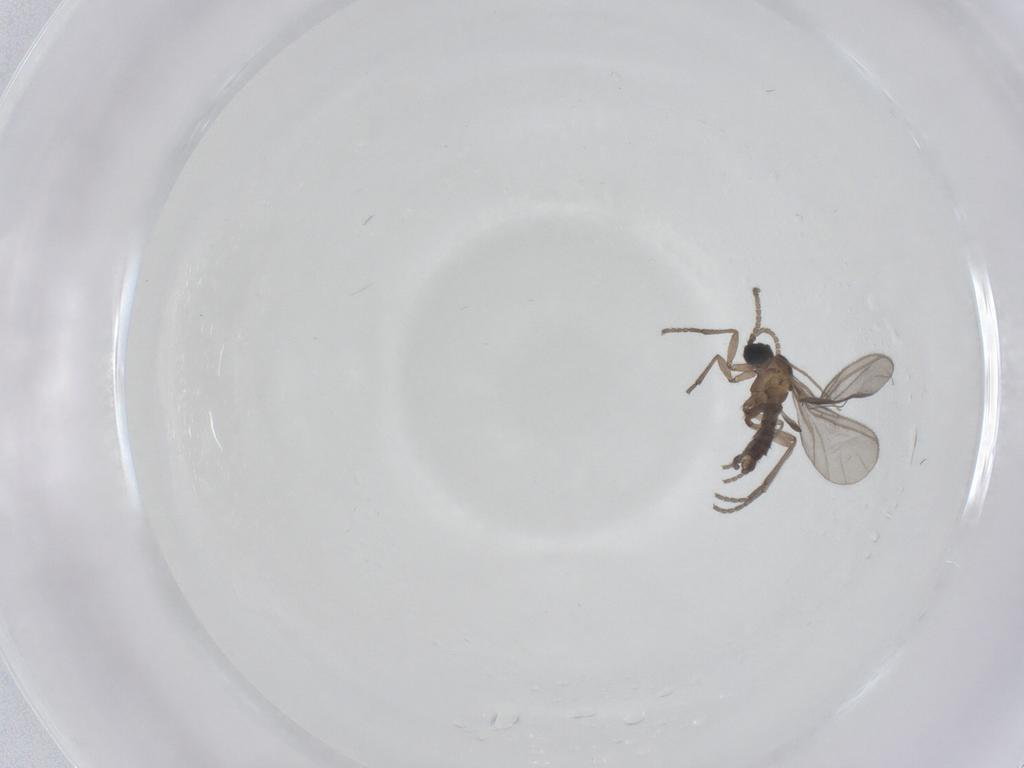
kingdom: Animalia
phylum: Arthropoda
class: Insecta
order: Diptera
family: Sciaridae
